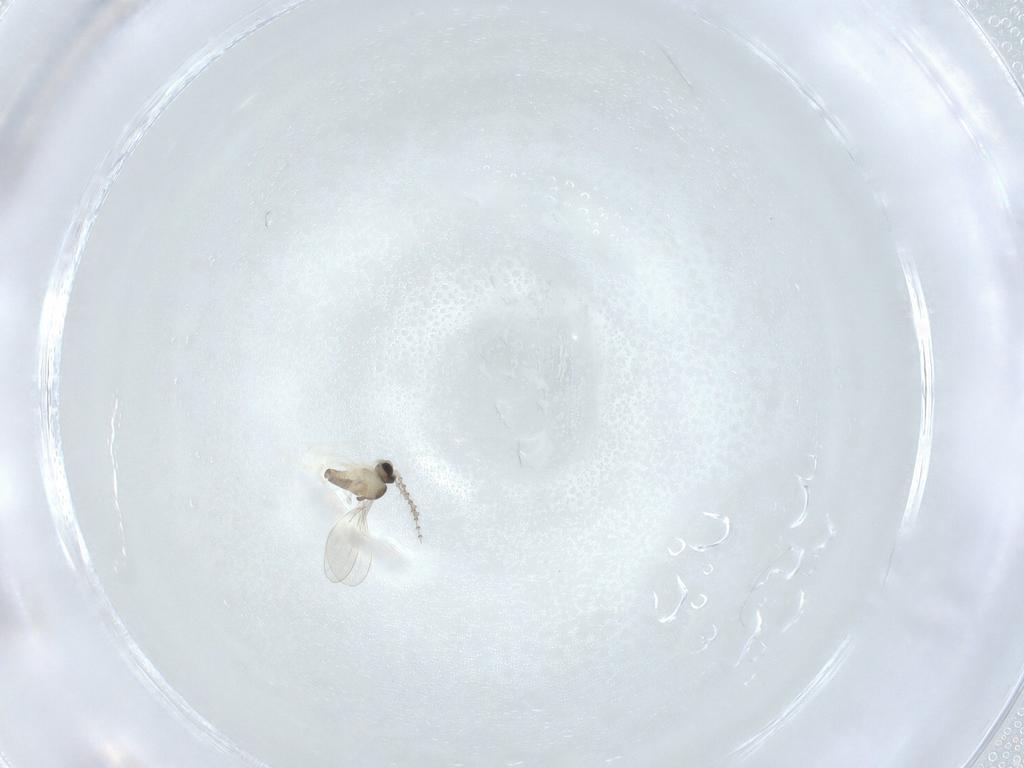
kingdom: Animalia
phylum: Arthropoda
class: Insecta
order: Diptera
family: Cecidomyiidae
